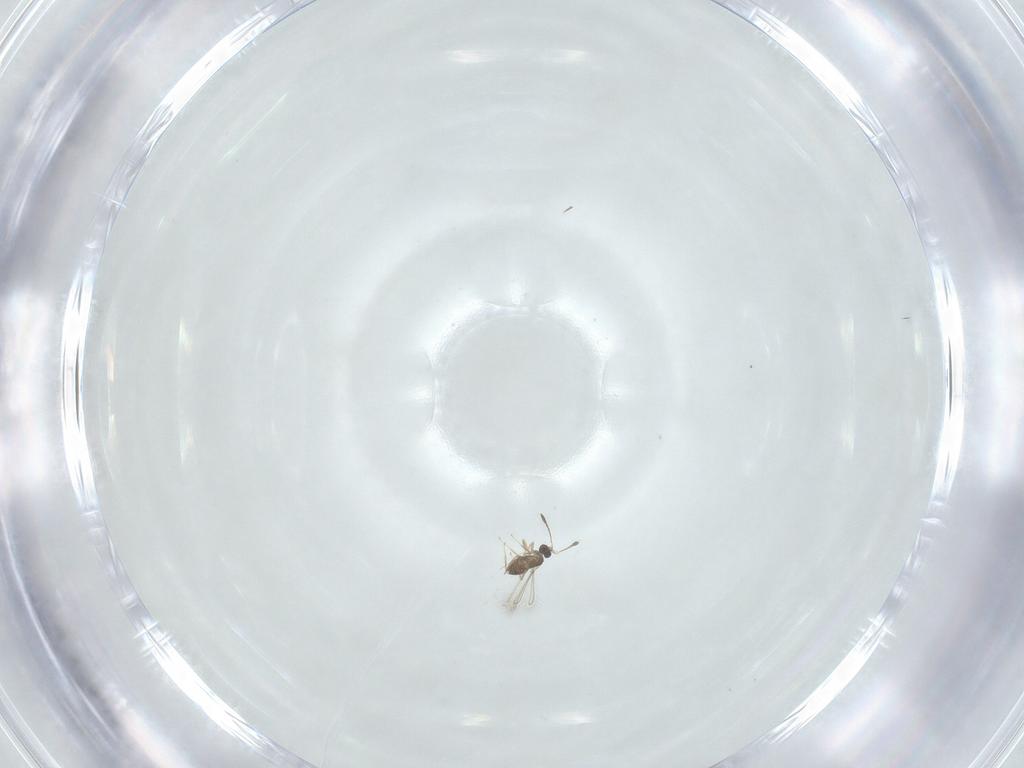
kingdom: Animalia
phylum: Arthropoda
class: Insecta
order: Hymenoptera
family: Mymaridae
